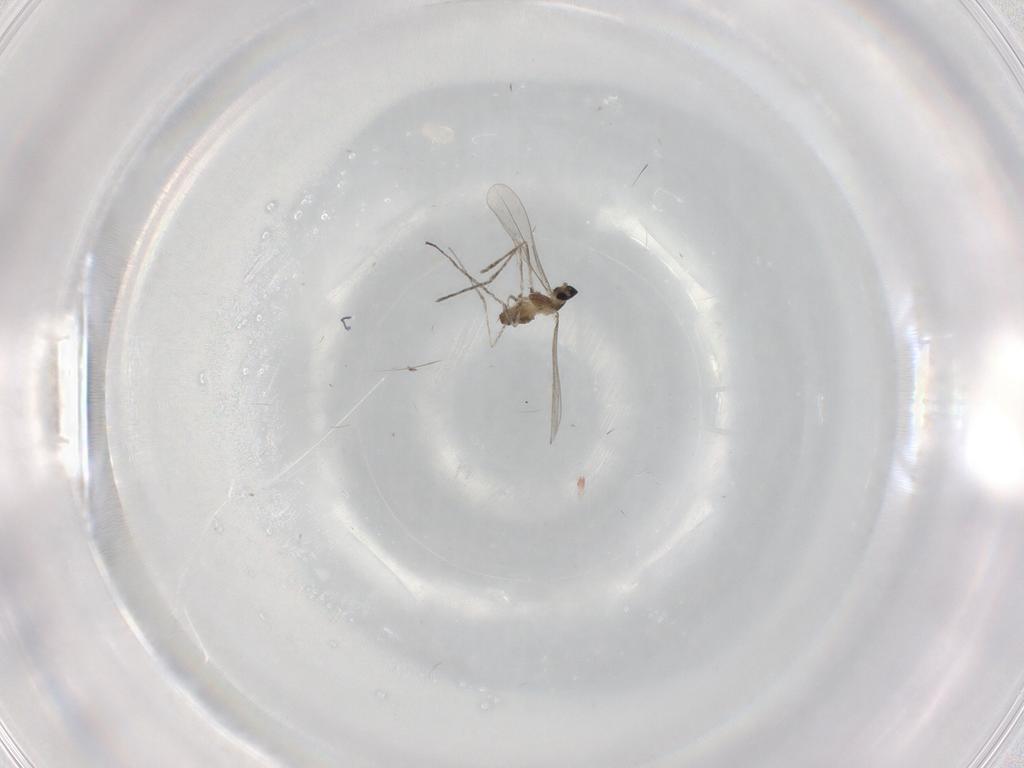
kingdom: Animalia
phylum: Arthropoda
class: Insecta
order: Diptera
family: Cecidomyiidae
